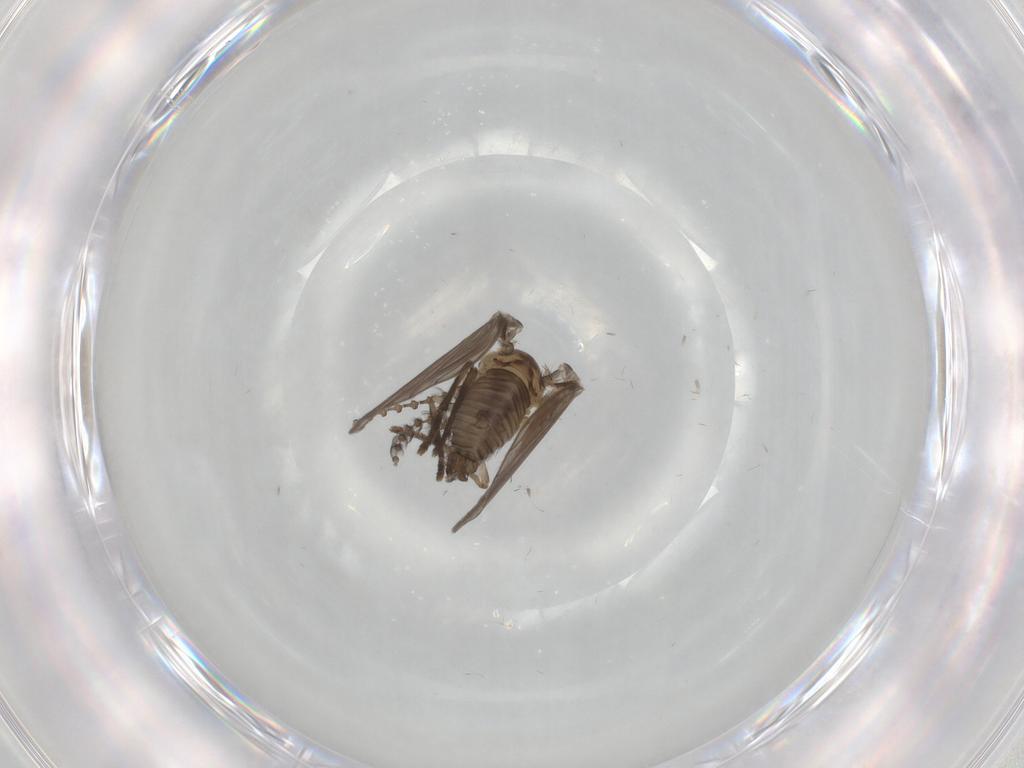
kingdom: Animalia
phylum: Arthropoda
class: Insecta
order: Diptera
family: Psychodidae
